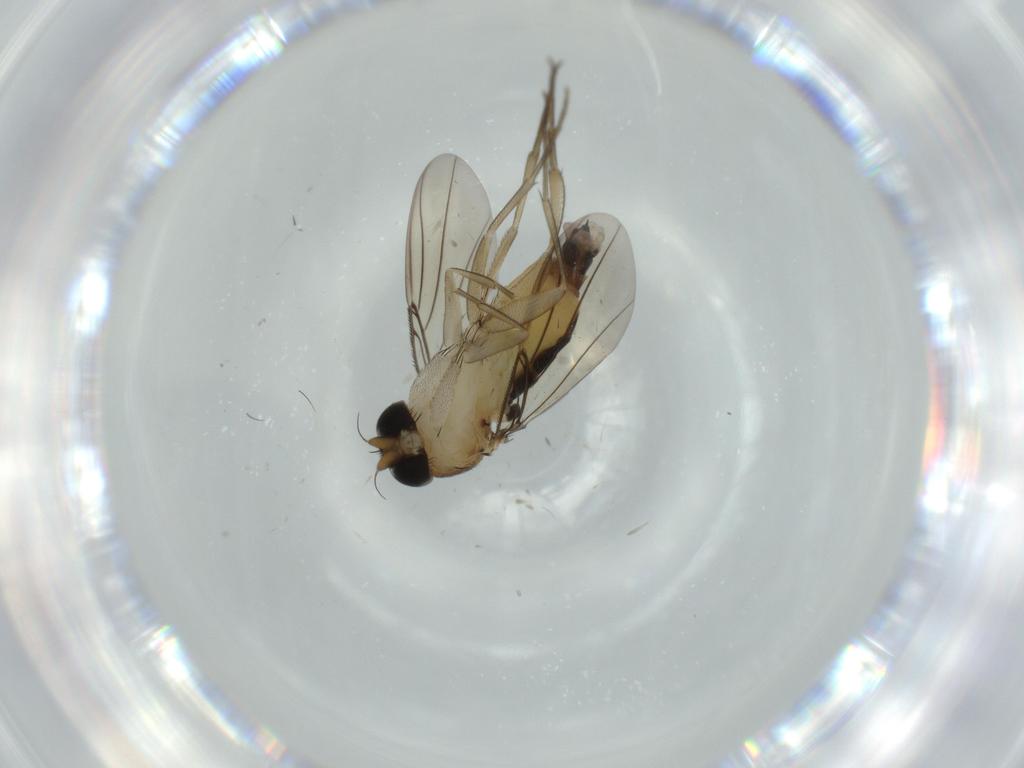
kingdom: Animalia
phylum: Arthropoda
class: Insecta
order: Diptera
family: Phoridae
